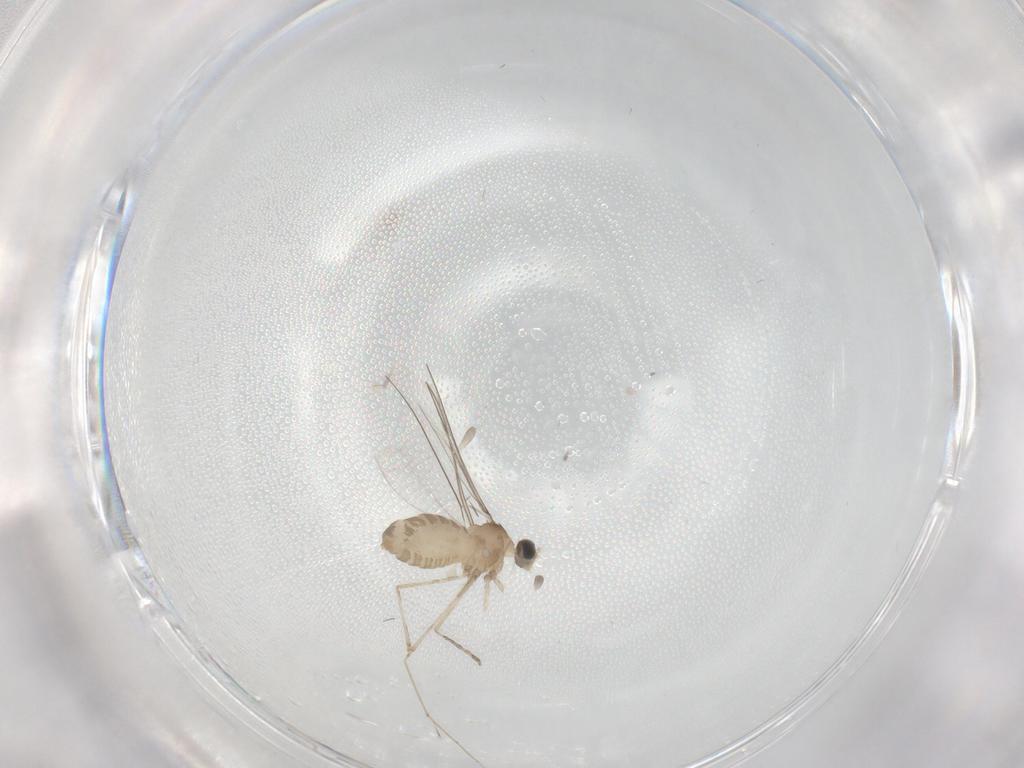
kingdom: Animalia
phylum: Arthropoda
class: Insecta
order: Diptera
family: Cecidomyiidae
